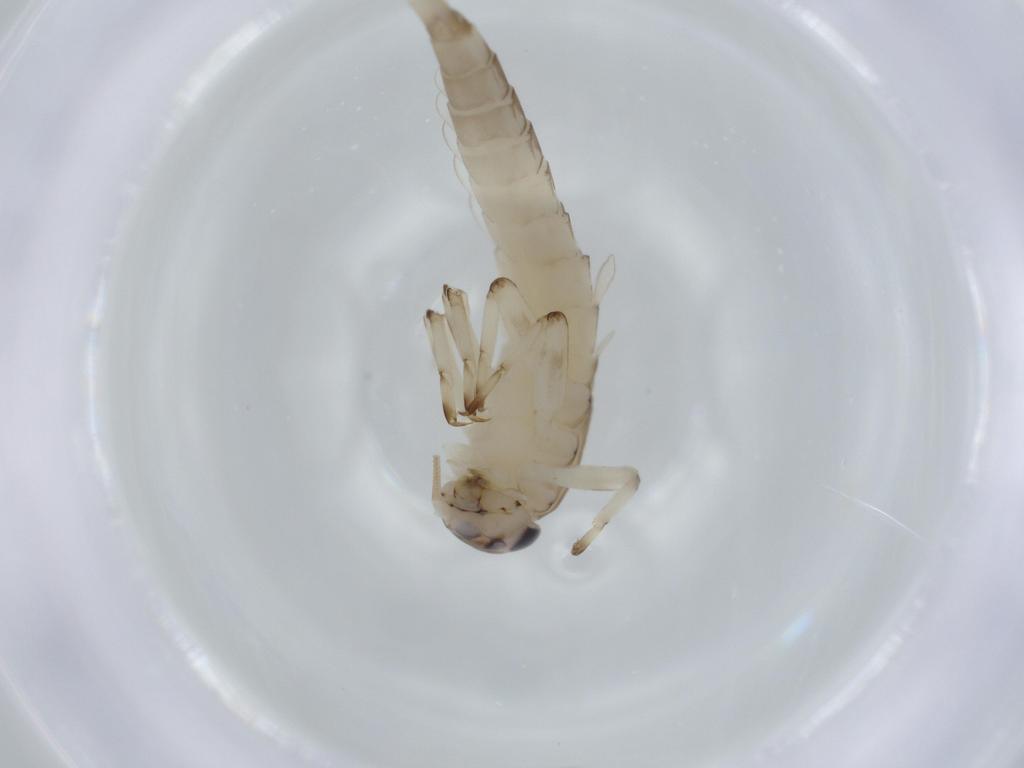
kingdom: Animalia
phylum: Arthropoda
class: Insecta
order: Ephemeroptera
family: Baetidae
